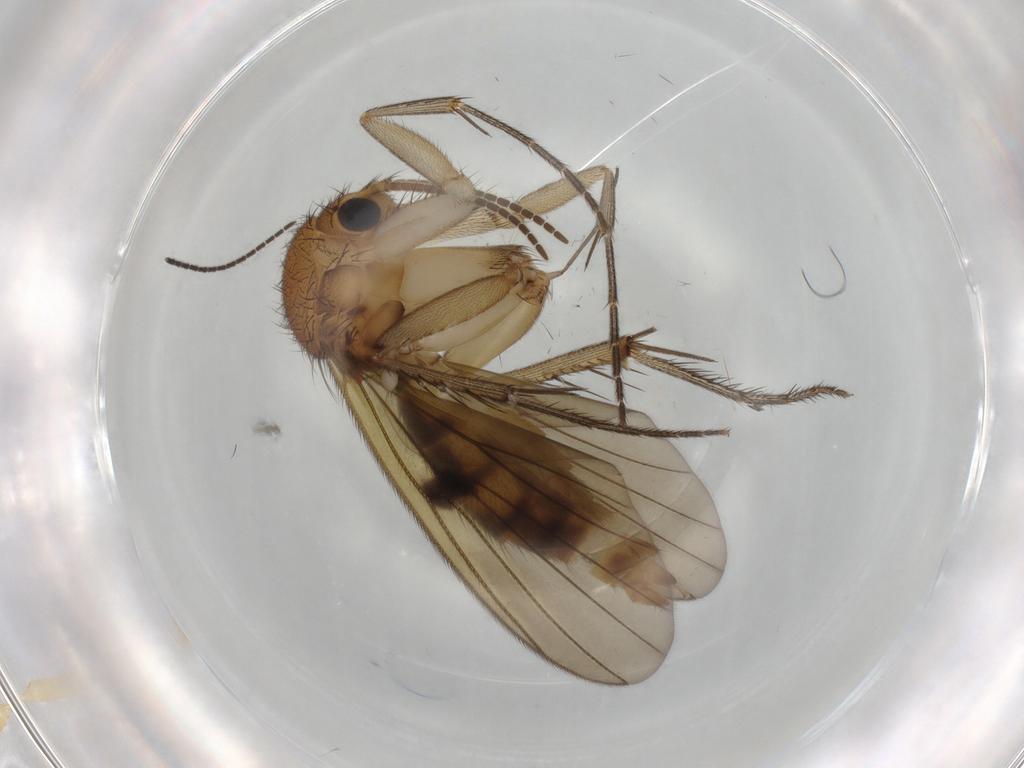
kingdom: Animalia
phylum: Arthropoda
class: Insecta
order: Diptera
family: Mycetophilidae
